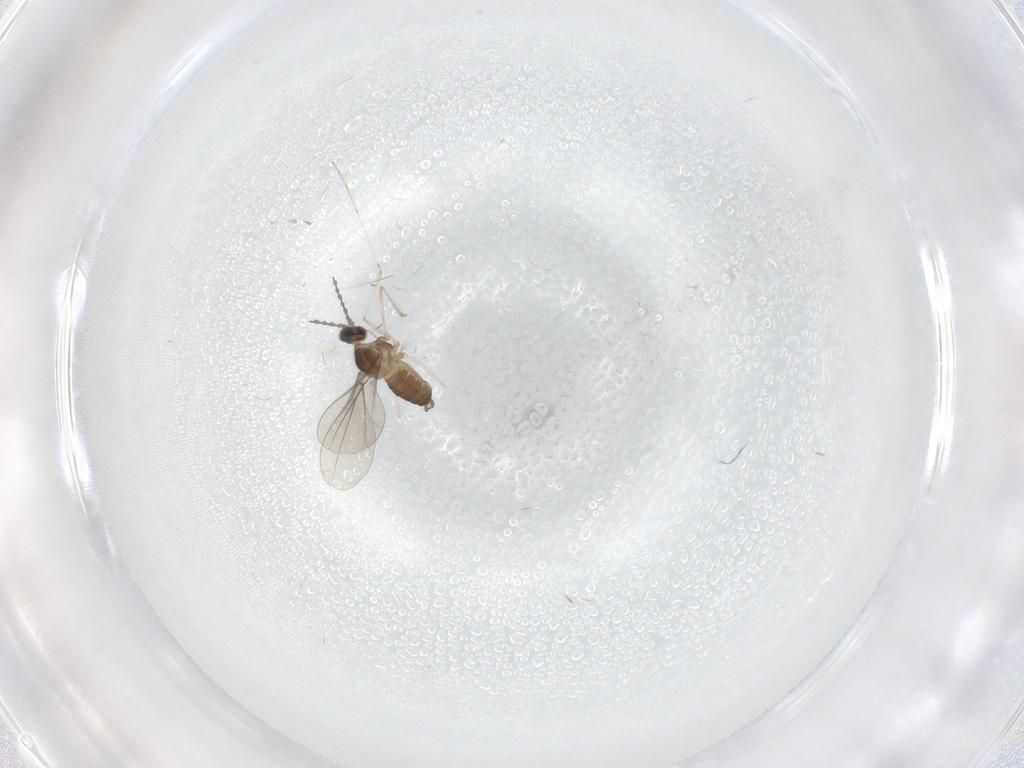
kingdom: Animalia
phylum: Arthropoda
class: Insecta
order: Diptera
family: Cecidomyiidae
